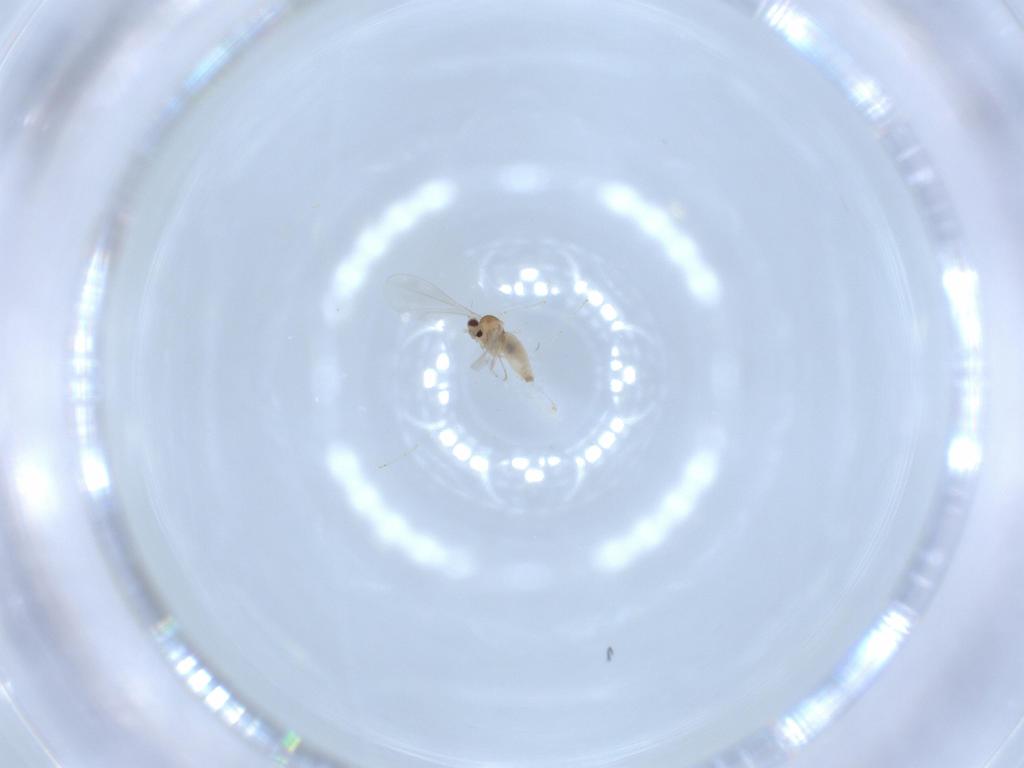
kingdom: Animalia
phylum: Arthropoda
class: Insecta
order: Diptera
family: Cecidomyiidae
